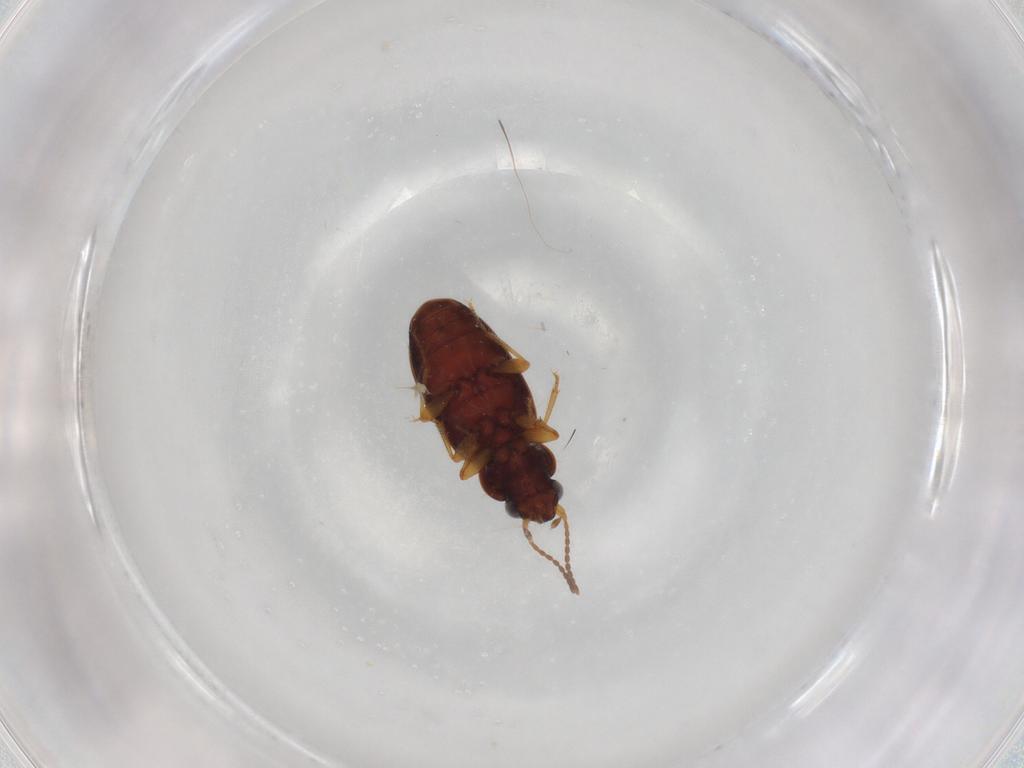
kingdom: Animalia
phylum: Arthropoda
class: Insecta
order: Coleoptera
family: Carabidae
